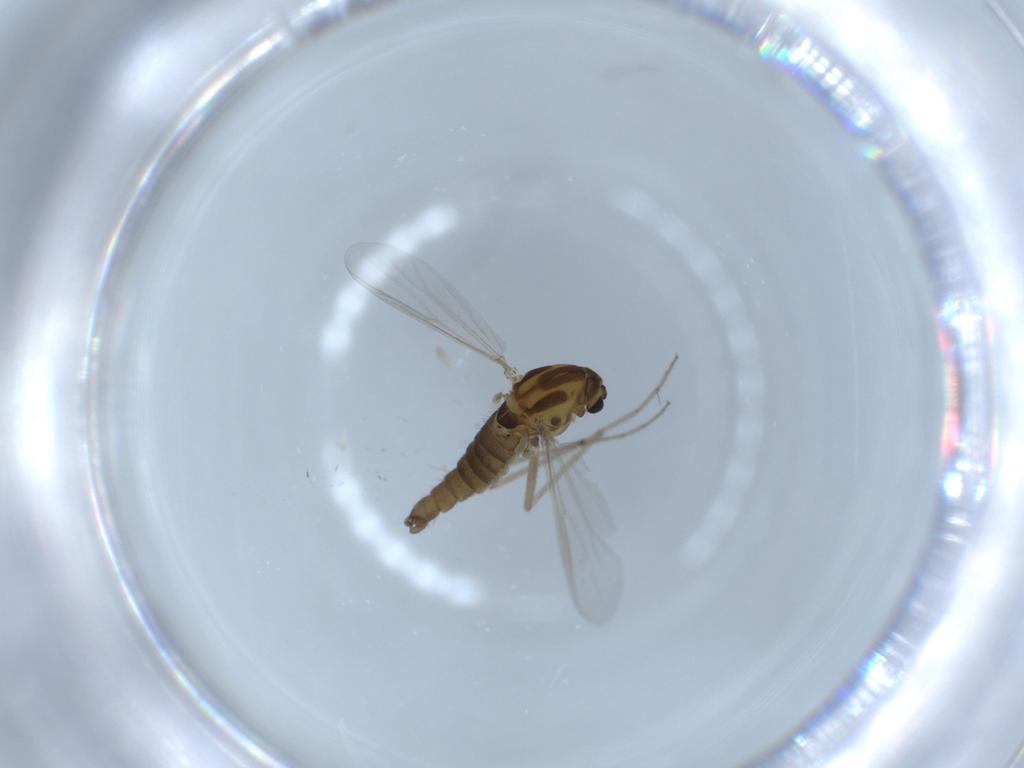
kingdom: Animalia
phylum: Arthropoda
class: Insecta
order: Diptera
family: Chironomidae
